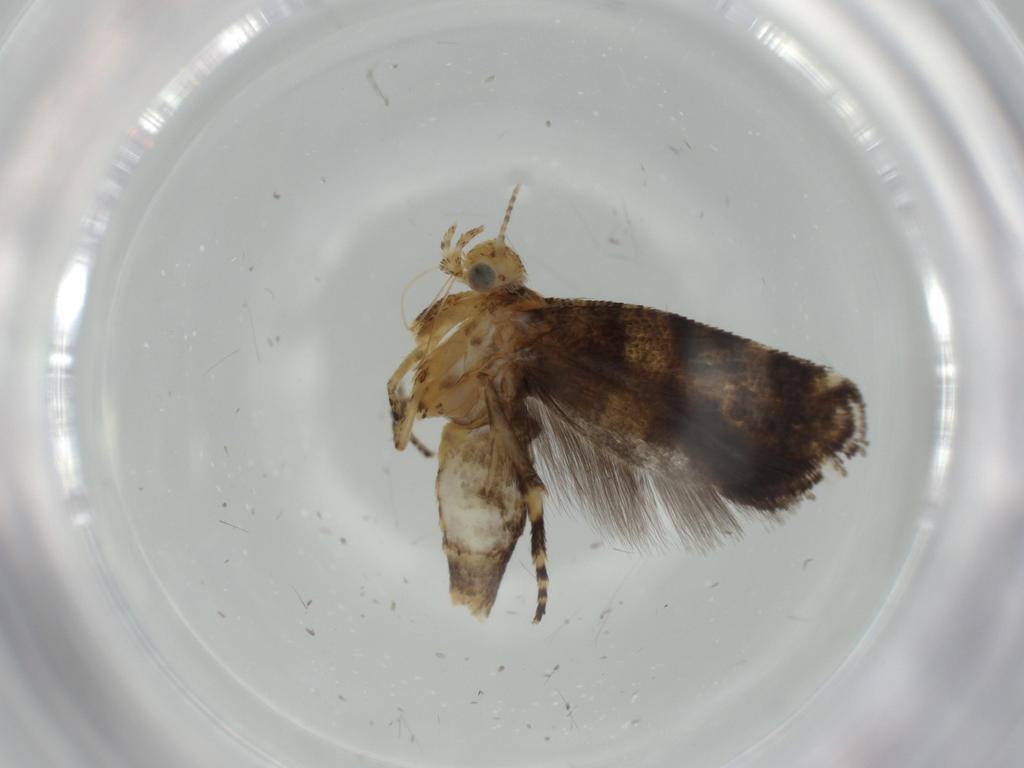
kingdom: Animalia
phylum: Arthropoda
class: Insecta
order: Lepidoptera
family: Glyphipterigidae
